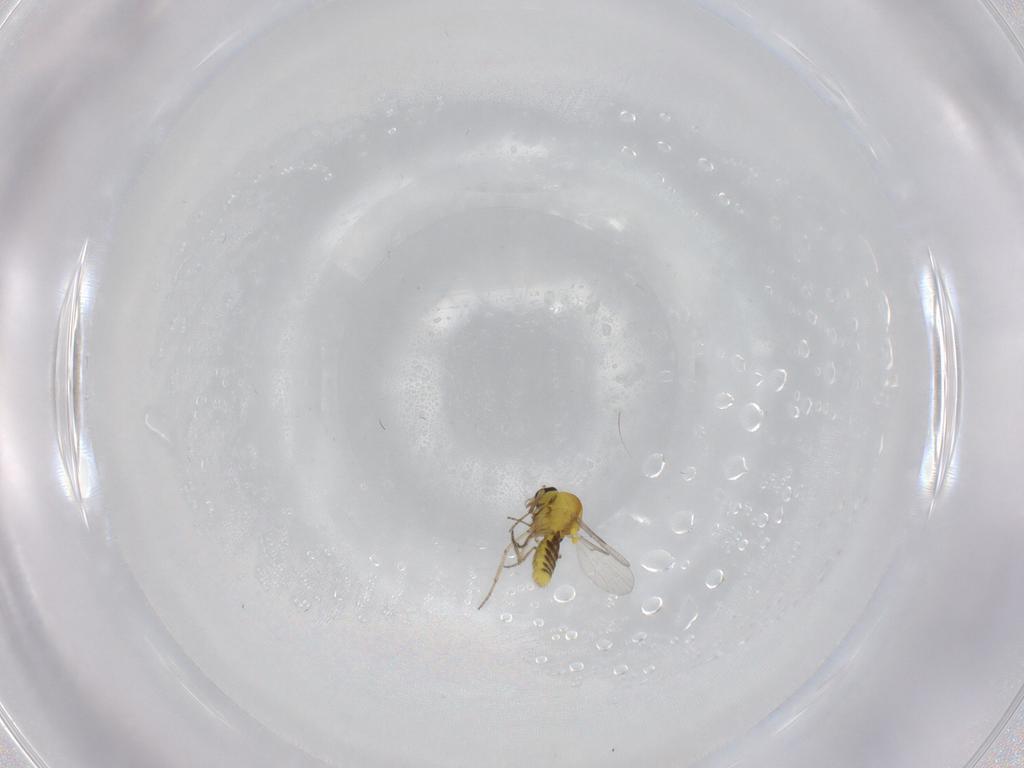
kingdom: Animalia
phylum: Arthropoda
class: Insecta
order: Diptera
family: Ceratopogonidae
